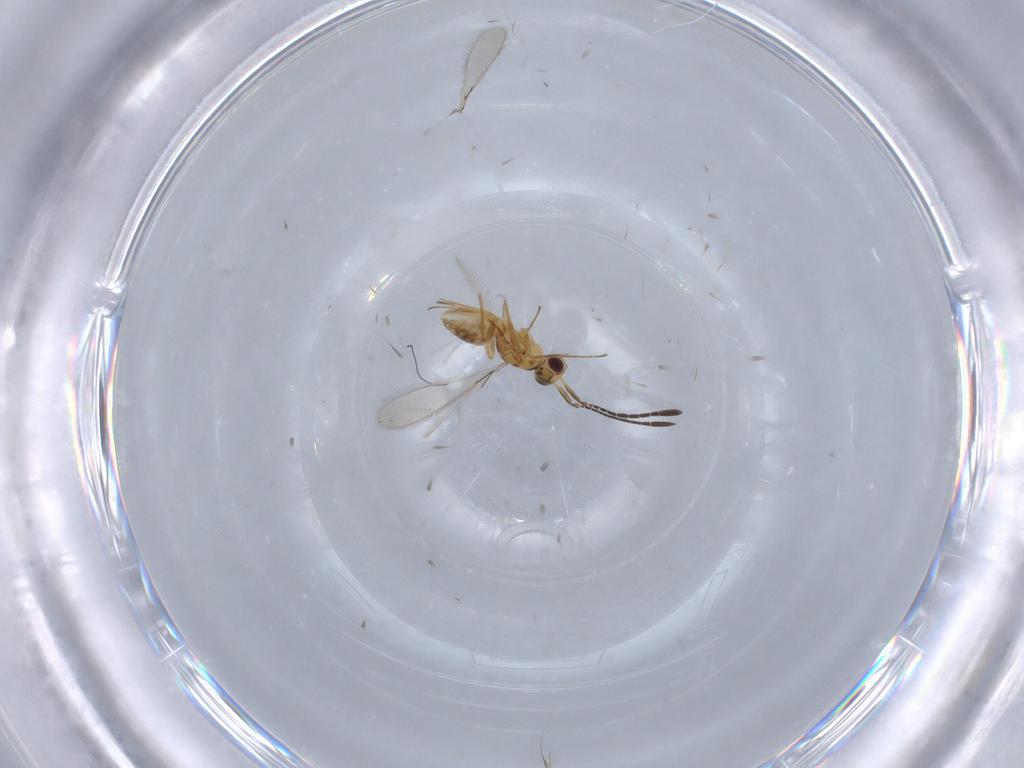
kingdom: Animalia
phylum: Arthropoda
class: Insecta
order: Hymenoptera
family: Mymaridae
